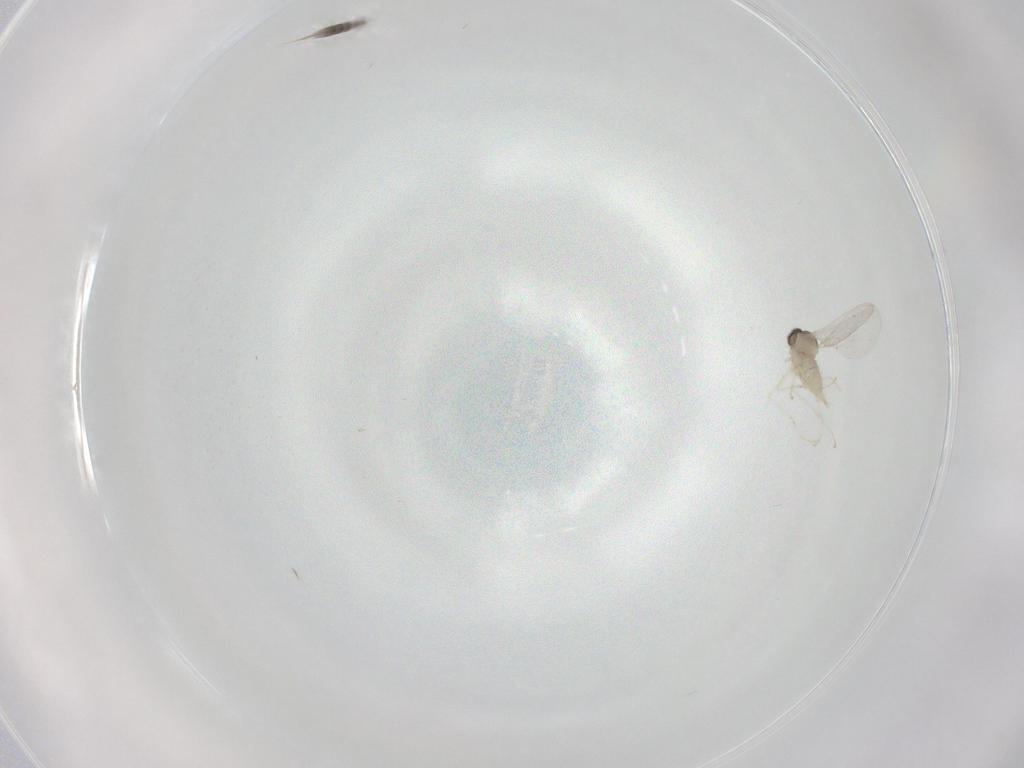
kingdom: Animalia
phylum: Arthropoda
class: Insecta
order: Diptera
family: Cecidomyiidae
